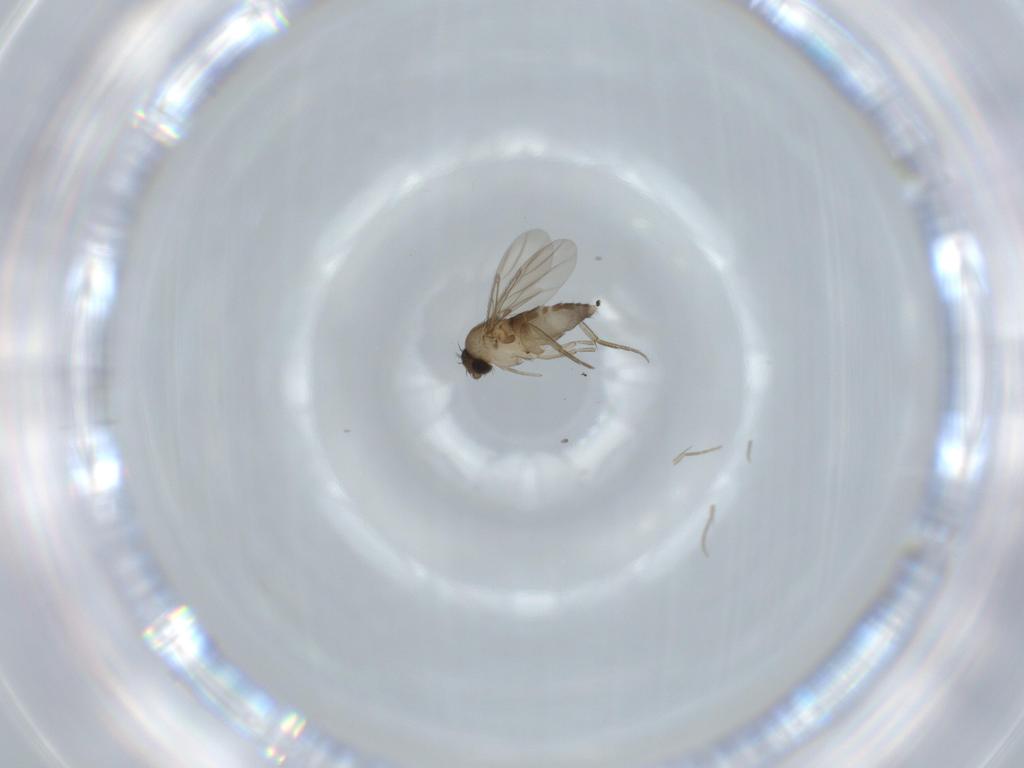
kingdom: Animalia
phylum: Arthropoda
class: Insecta
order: Diptera
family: Phoridae
